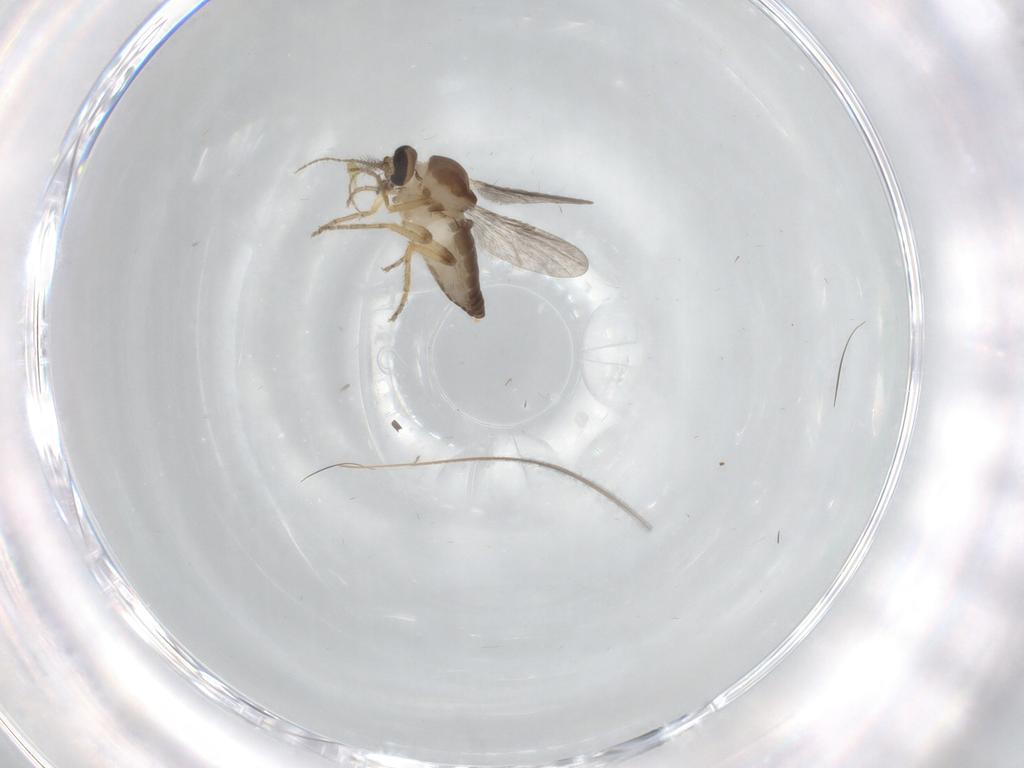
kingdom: Animalia
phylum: Arthropoda
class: Insecta
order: Diptera
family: Ceratopogonidae
